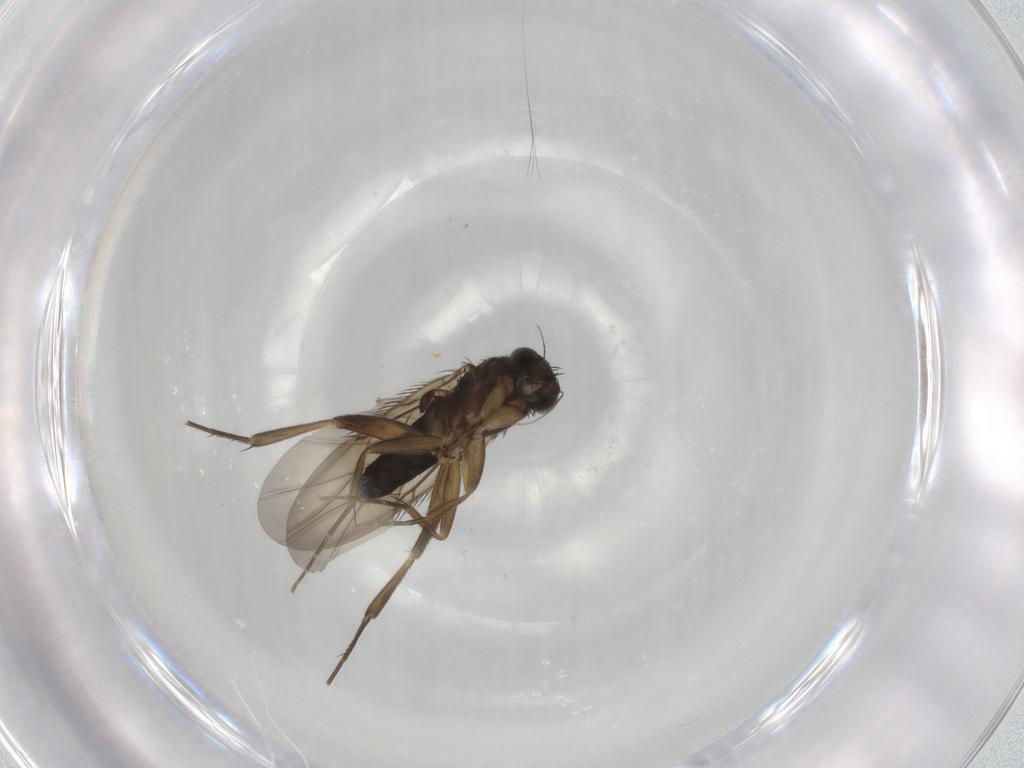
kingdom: Animalia
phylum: Arthropoda
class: Insecta
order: Diptera
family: Phoridae
